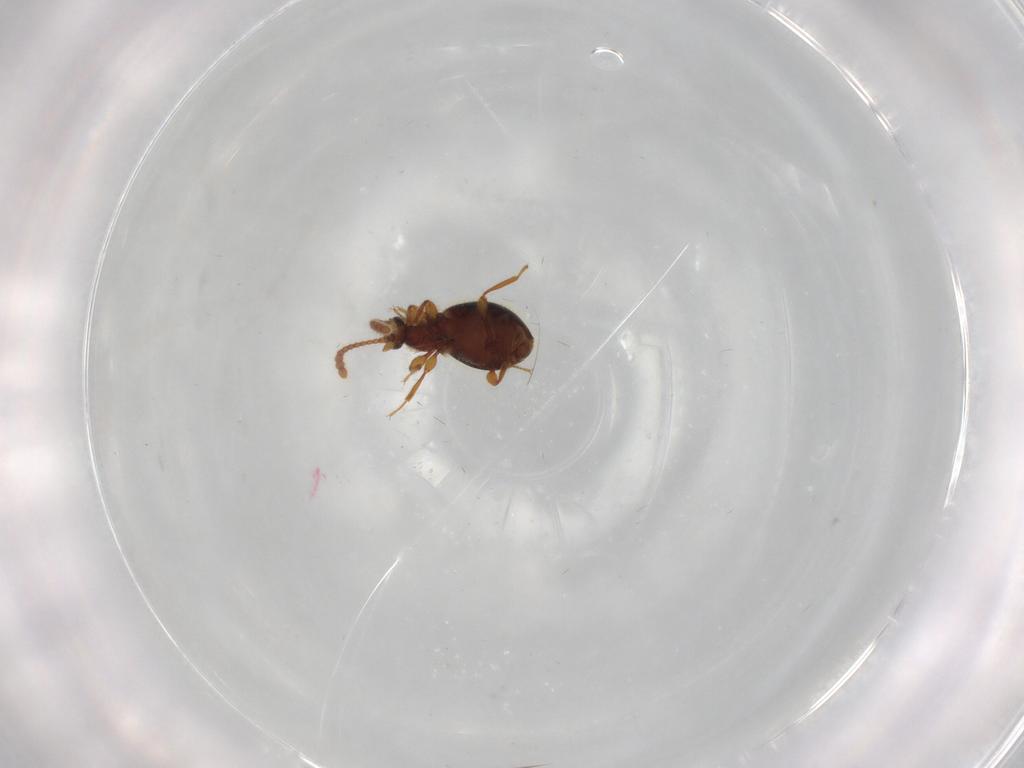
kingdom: Animalia
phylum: Arthropoda
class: Insecta
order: Coleoptera
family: Staphylinidae
